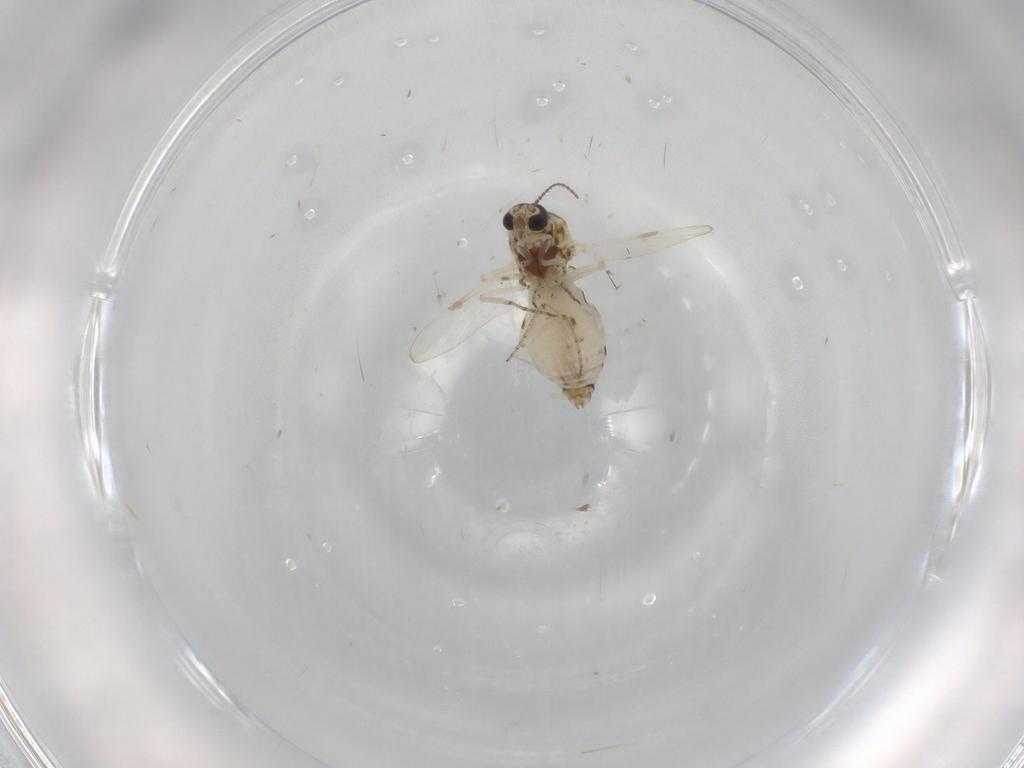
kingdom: Animalia
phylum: Arthropoda
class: Insecta
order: Diptera
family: Ceratopogonidae
